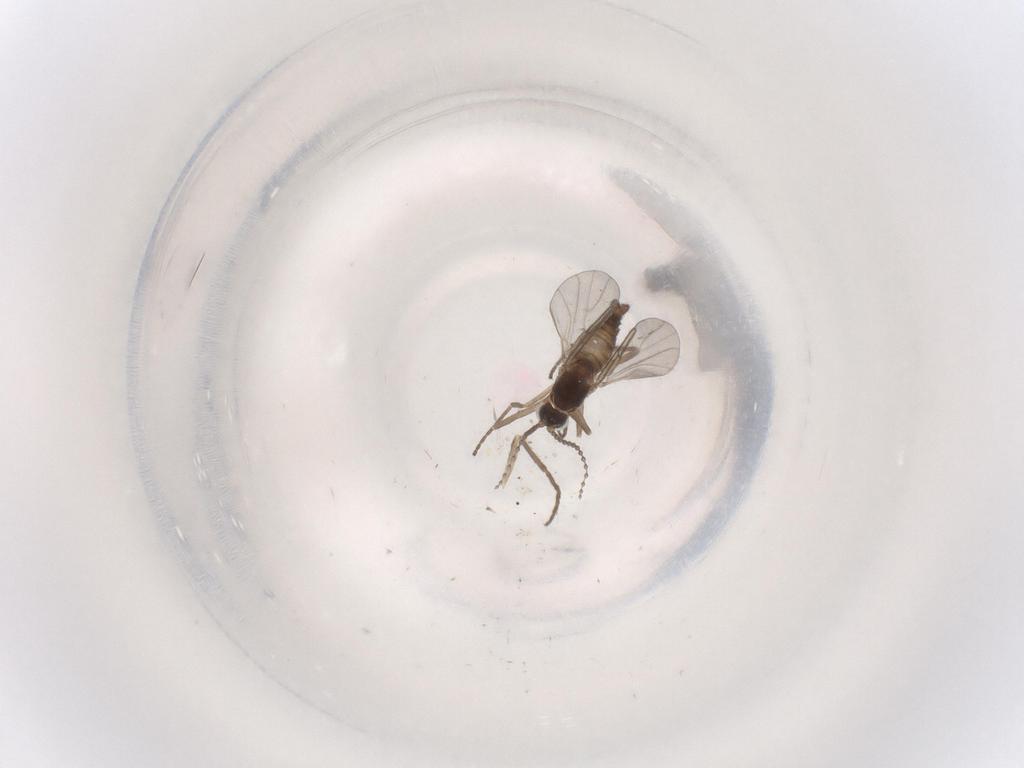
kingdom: Animalia
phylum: Arthropoda
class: Insecta
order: Diptera
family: Cecidomyiidae
